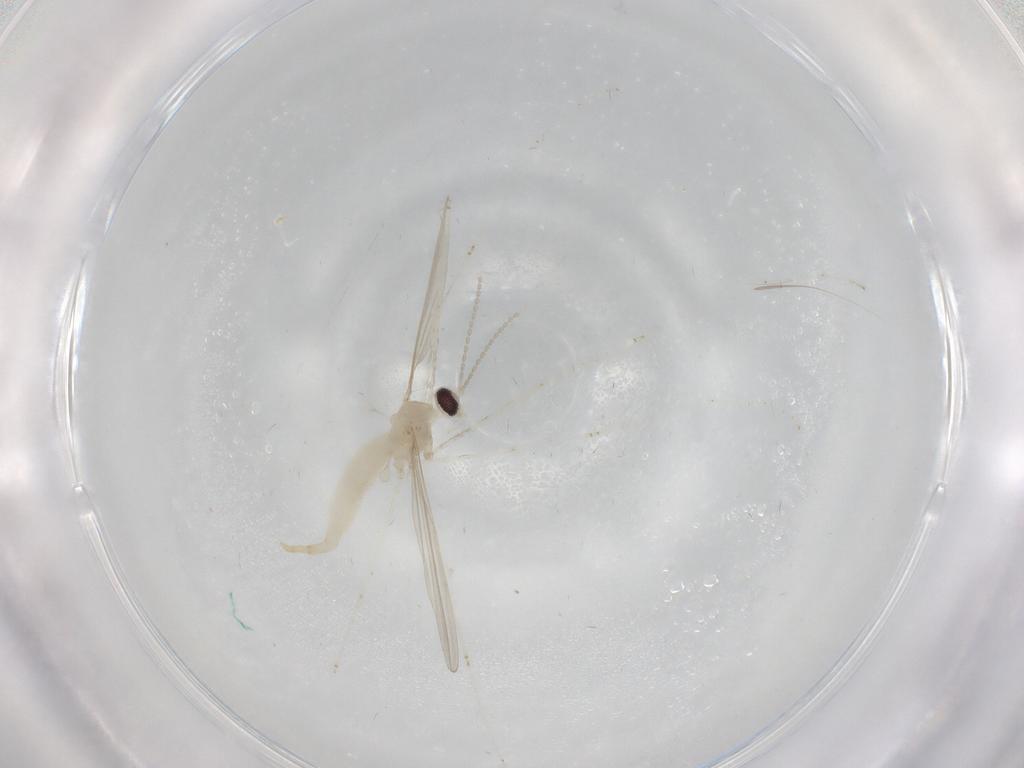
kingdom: Animalia
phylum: Arthropoda
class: Insecta
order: Diptera
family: Cecidomyiidae
